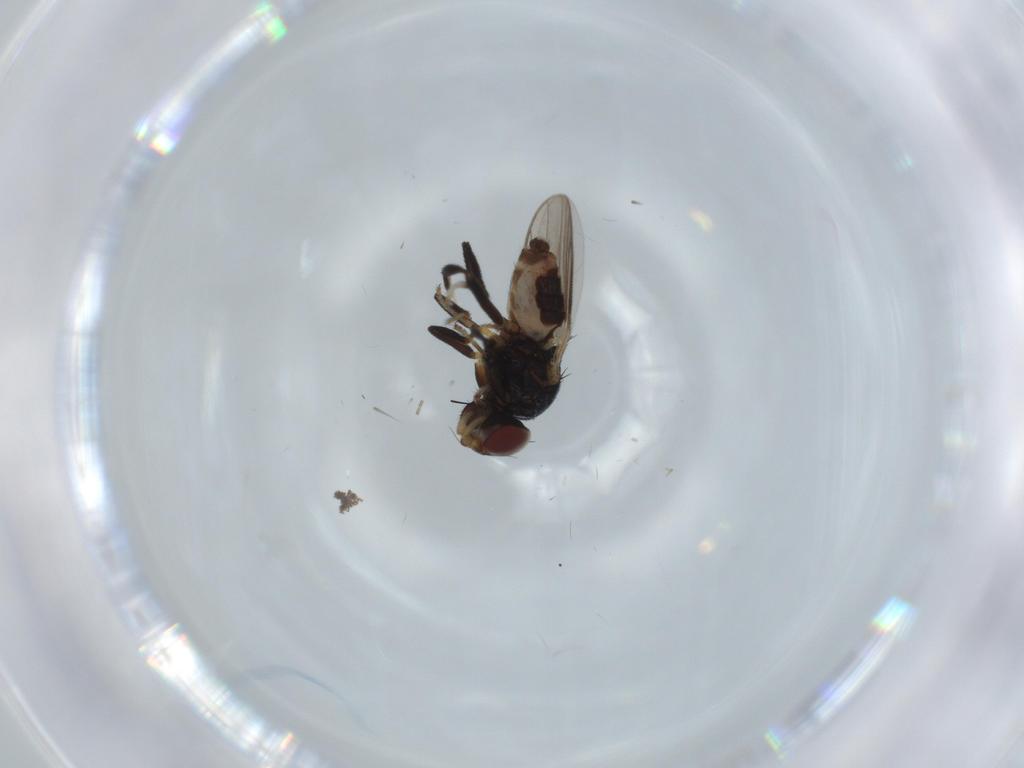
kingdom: Animalia
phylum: Arthropoda
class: Insecta
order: Diptera
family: Chloropidae
